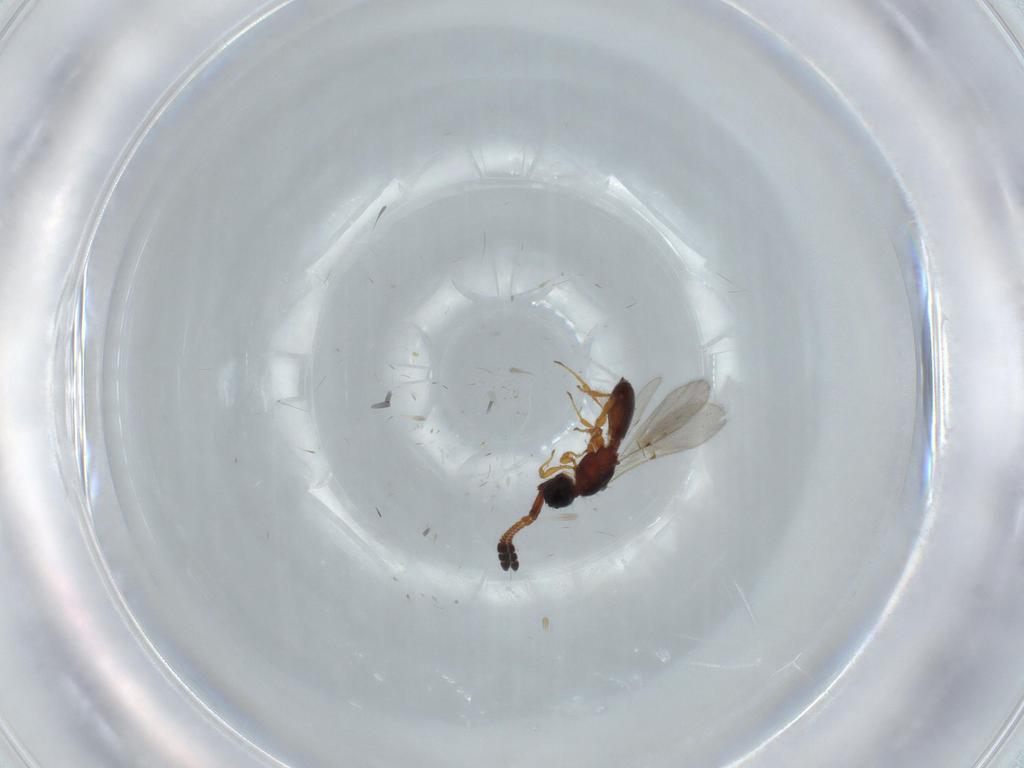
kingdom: Animalia
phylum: Arthropoda
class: Insecta
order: Hymenoptera
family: Diapriidae
